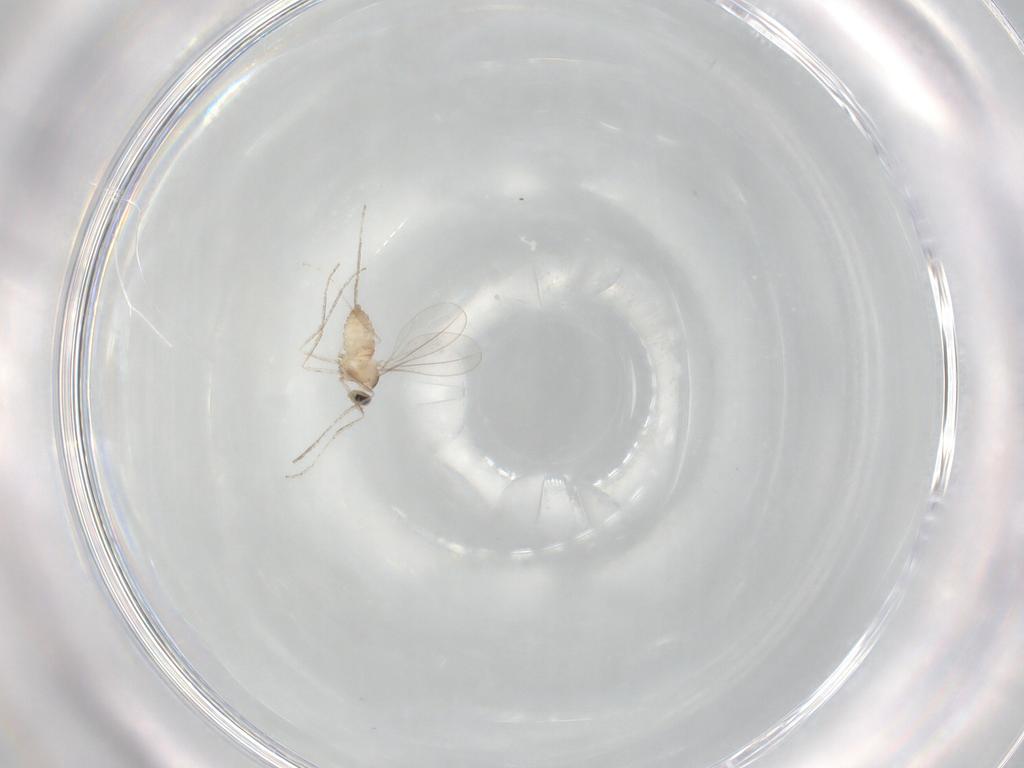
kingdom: Animalia
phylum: Arthropoda
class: Insecta
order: Diptera
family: Cecidomyiidae
